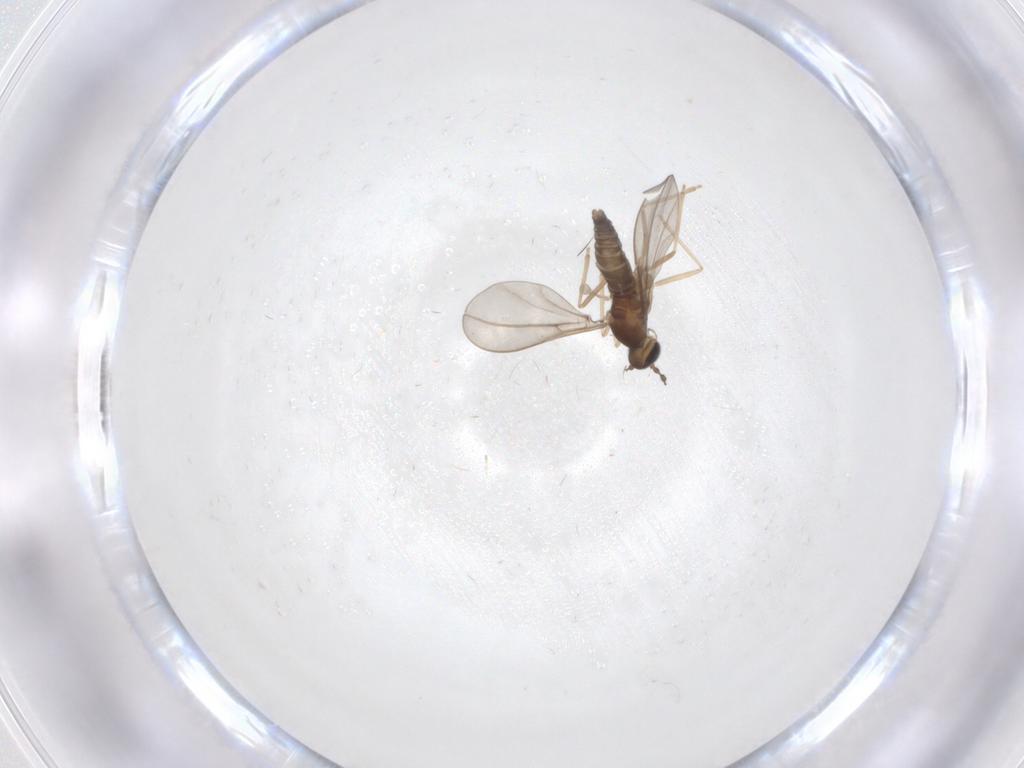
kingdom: Animalia
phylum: Arthropoda
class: Insecta
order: Diptera
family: Cecidomyiidae
